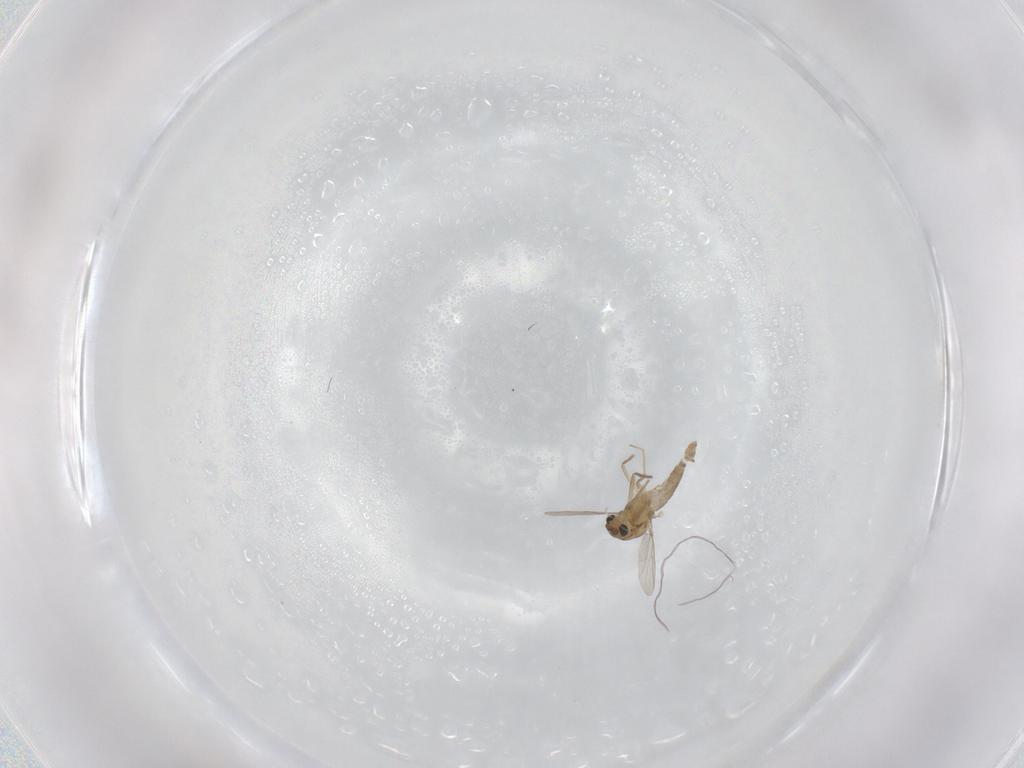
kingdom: Animalia
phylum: Arthropoda
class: Insecta
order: Diptera
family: Chironomidae
